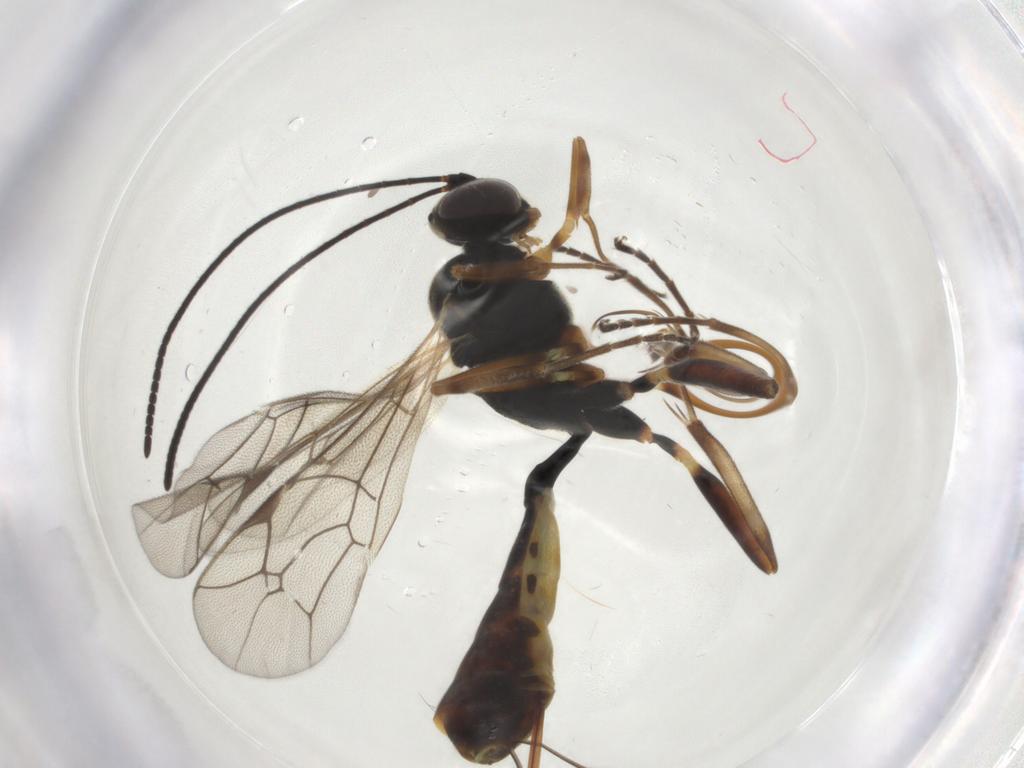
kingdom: Animalia
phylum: Arthropoda
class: Insecta
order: Hymenoptera
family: Ichneumonidae
